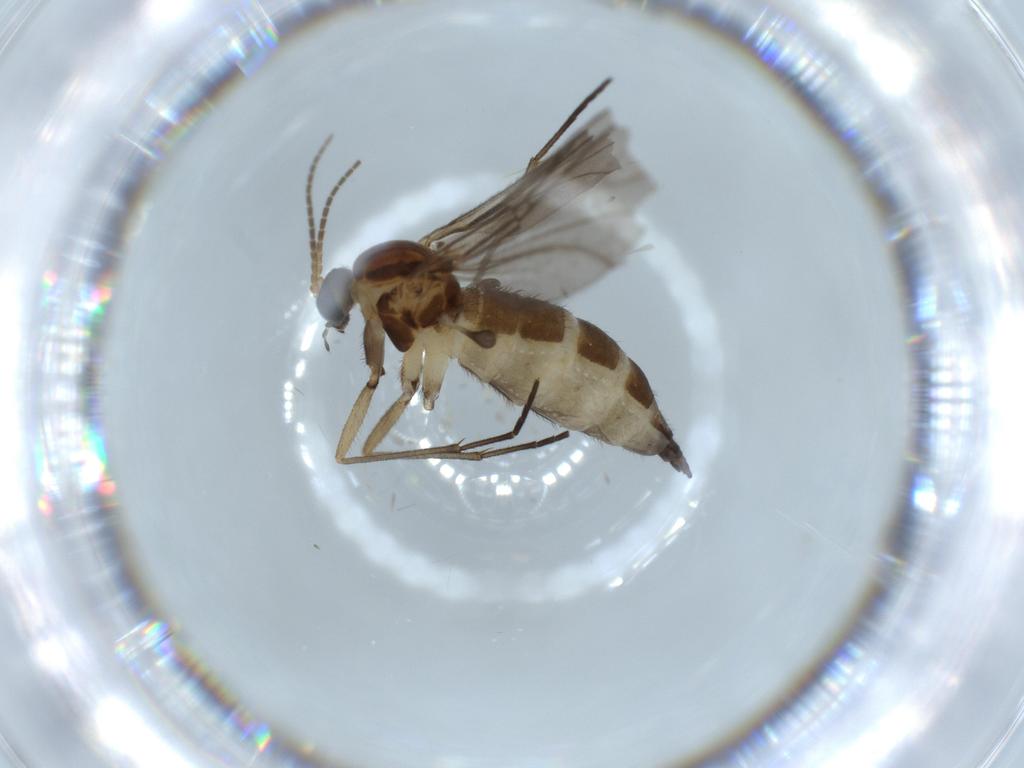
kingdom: Animalia
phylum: Arthropoda
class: Insecta
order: Diptera
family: Sciaridae
